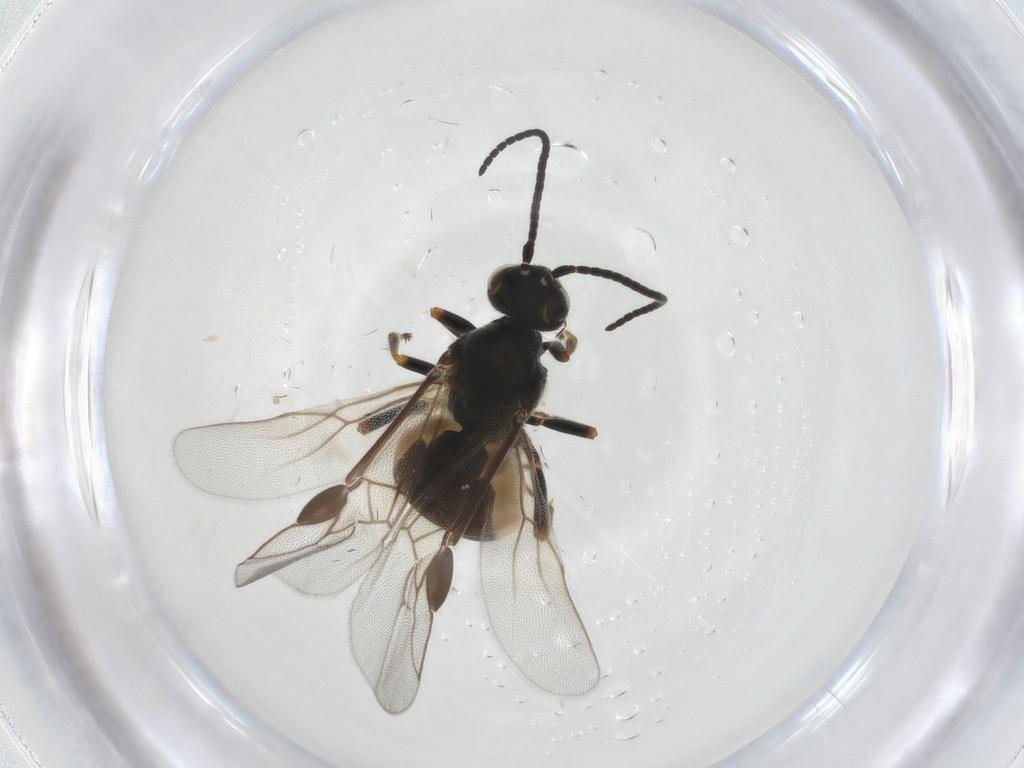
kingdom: Animalia
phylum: Arthropoda
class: Insecta
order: Hymenoptera
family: Braconidae
